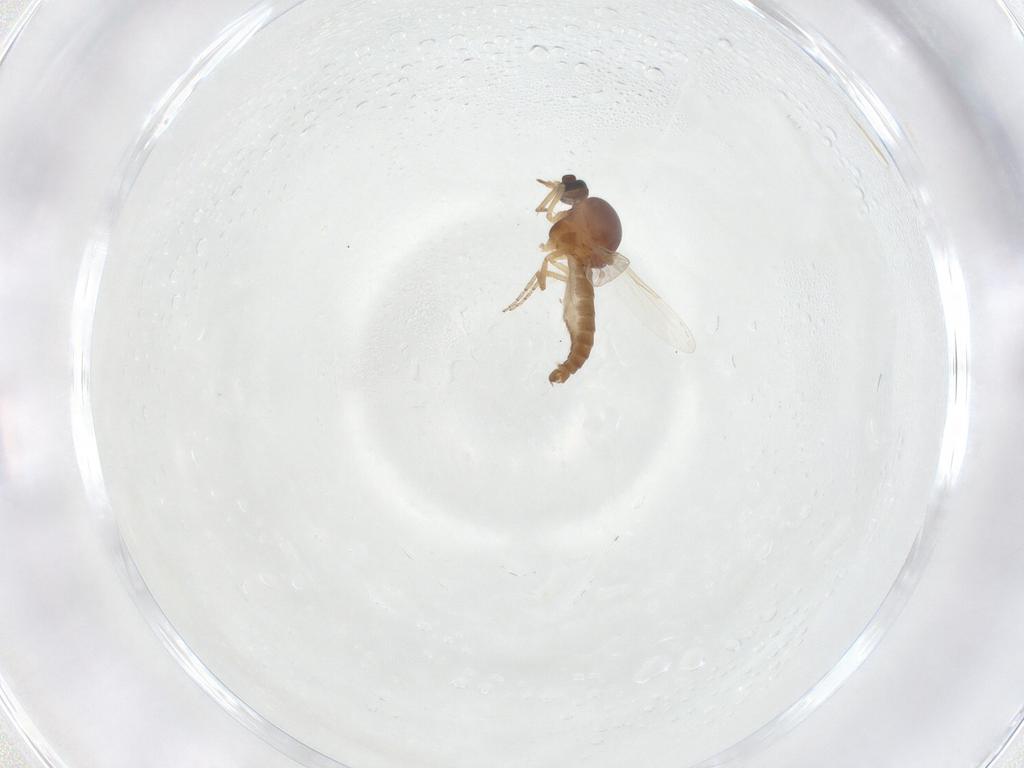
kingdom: Animalia
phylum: Arthropoda
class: Insecta
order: Diptera
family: Ceratopogonidae
